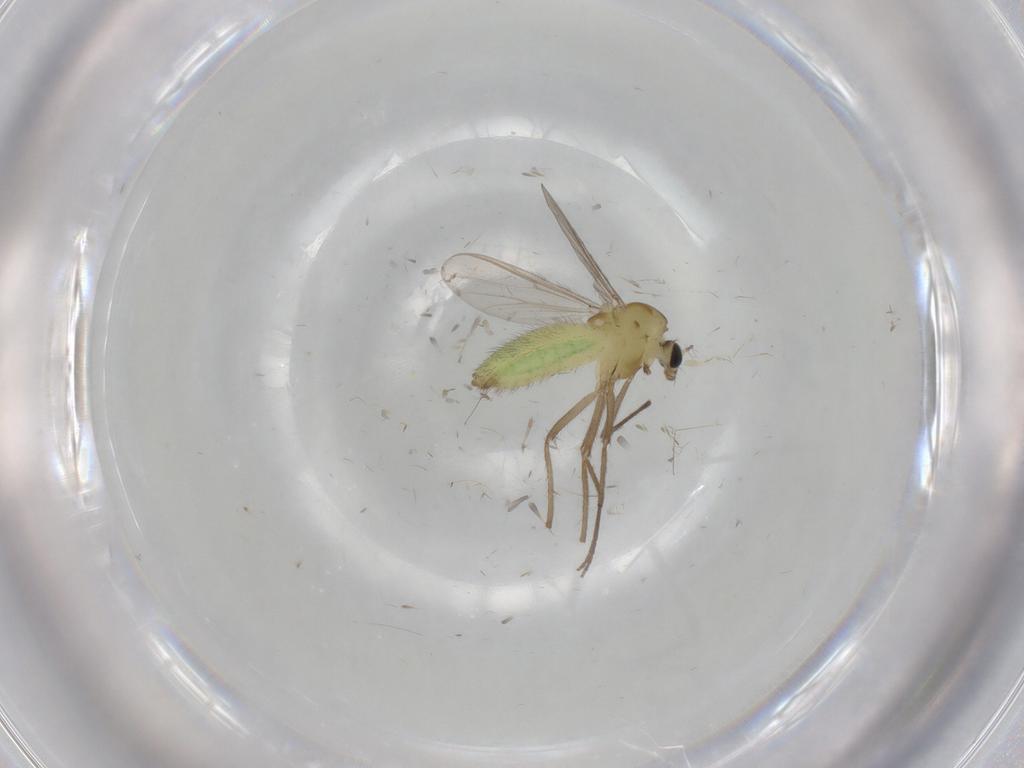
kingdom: Animalia
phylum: Arthropoda
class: Insecta
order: Diptera
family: Chironomidae
